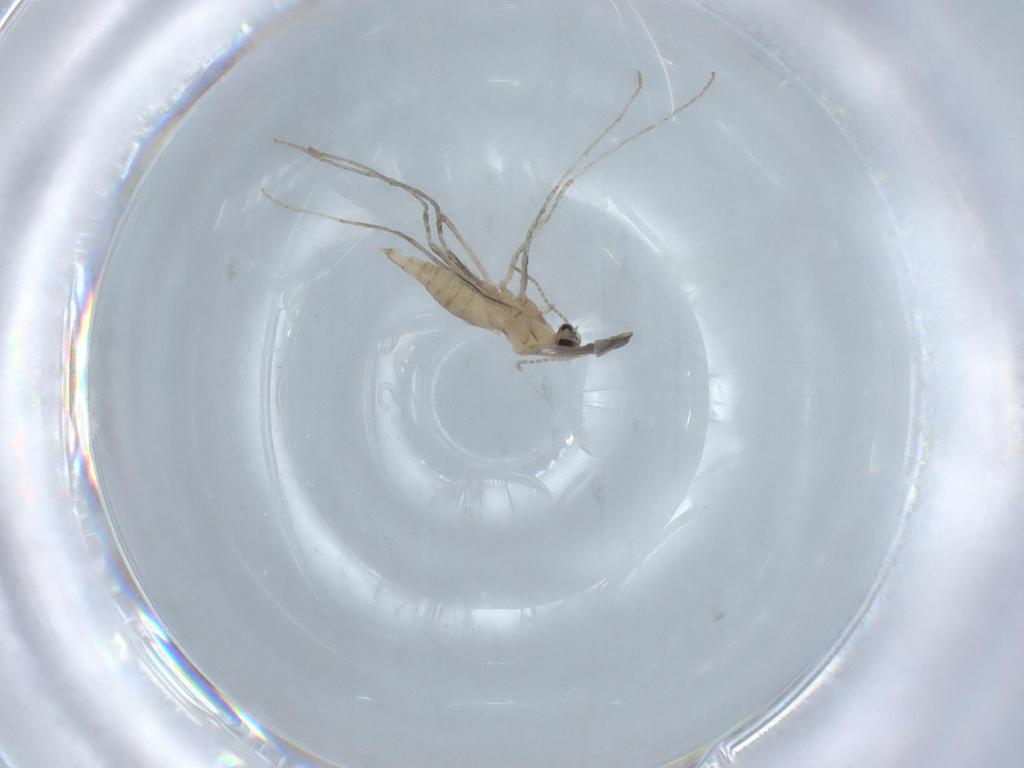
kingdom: Animalia
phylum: Arthropoda
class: Insecta
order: Diptera
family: Cecidomyiidae
